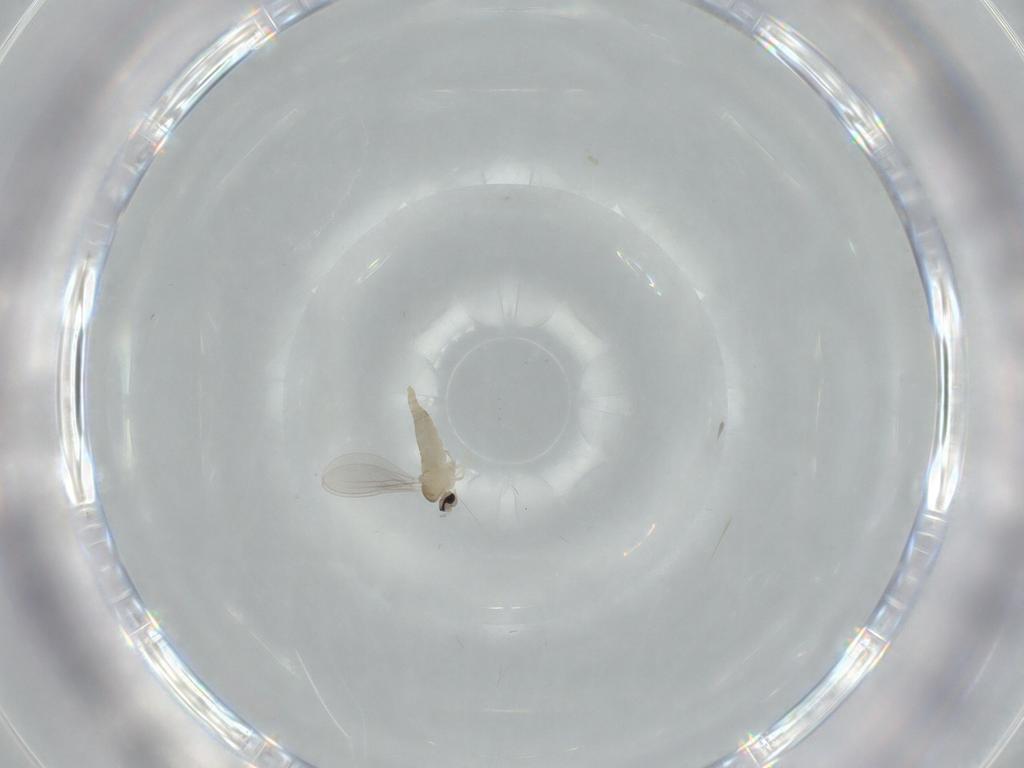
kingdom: Animalia
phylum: Arthropoda
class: Insecta
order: Diptera
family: Cecidomyiidae
